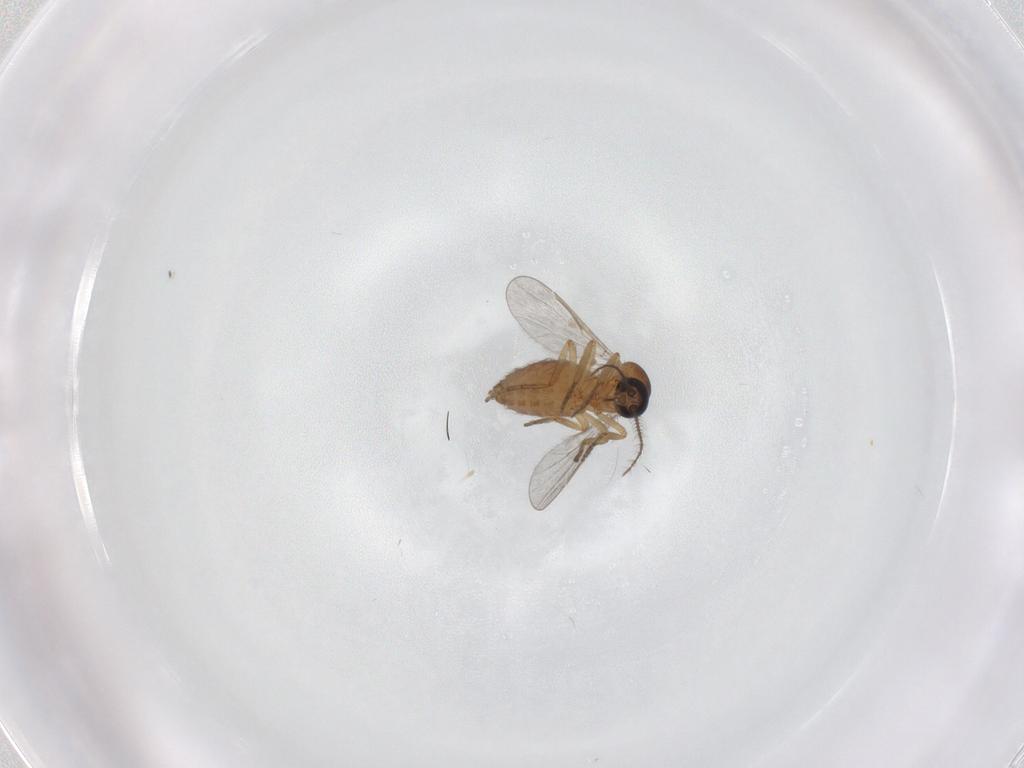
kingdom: Animalia
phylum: Arthropoda
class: Insecta
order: Diptera
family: Ceratopogonidae
